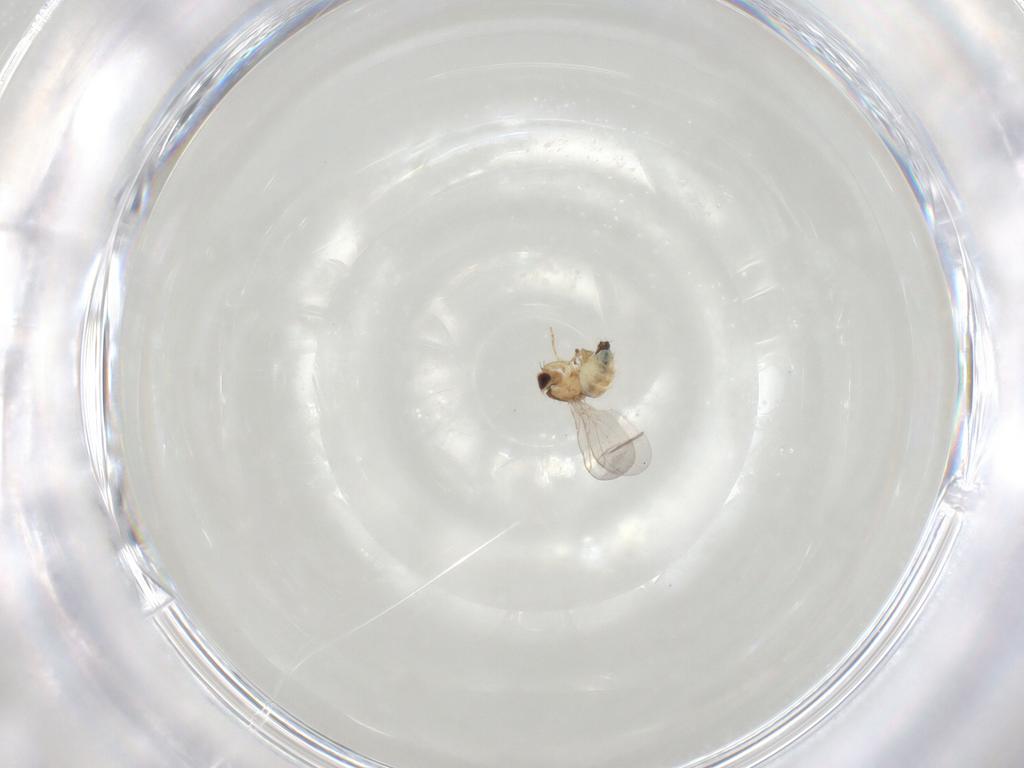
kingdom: Animalia
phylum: Arthropoda
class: Insecta
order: Diptera
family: Agromyzidae
